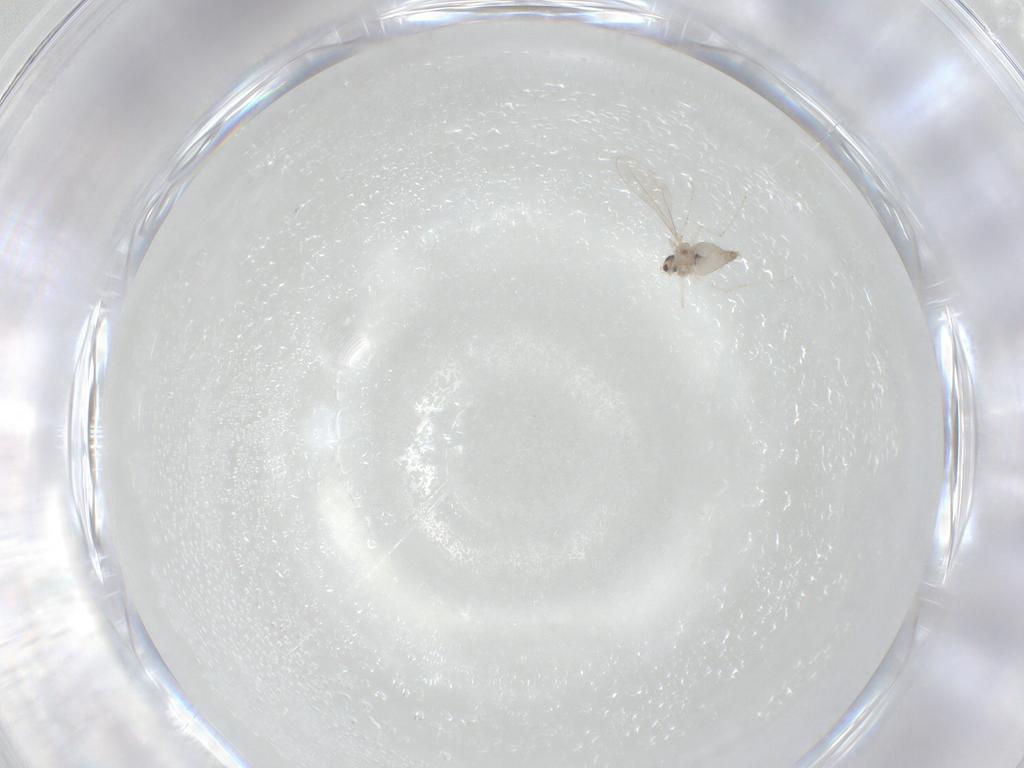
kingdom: Animalia
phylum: Arthropoda
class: Insecta
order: Diptera
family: Cecidomyiidae
